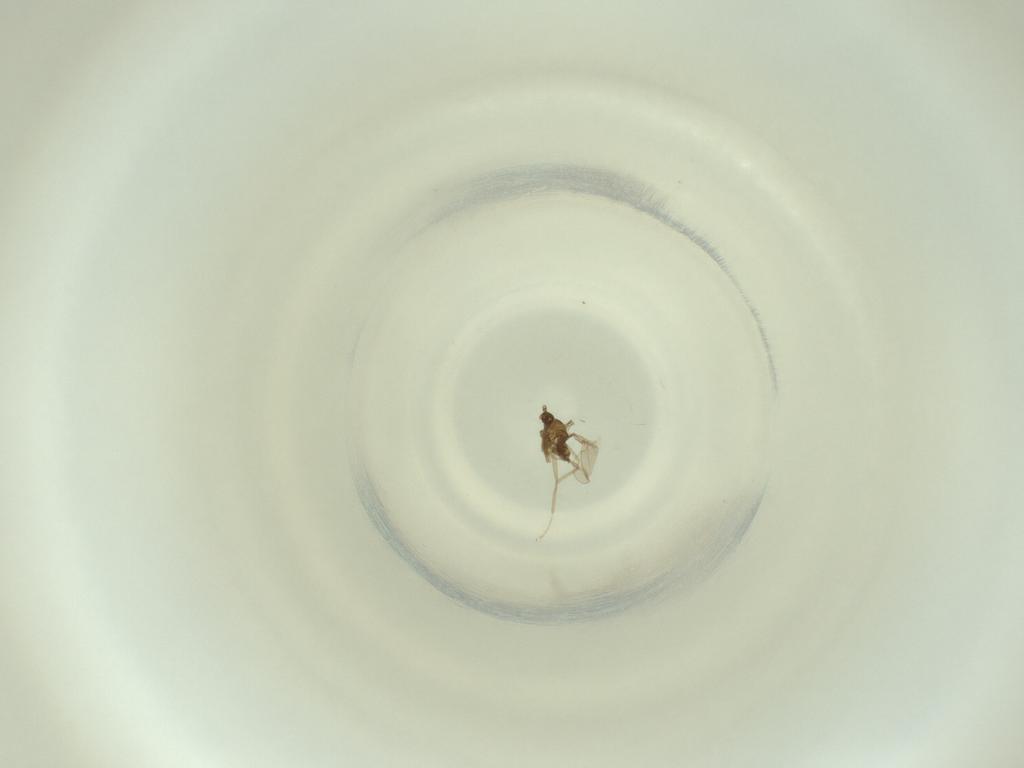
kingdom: Animalia
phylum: Arthropoda
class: Insecta
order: Diptera
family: Cecidomyiidae
